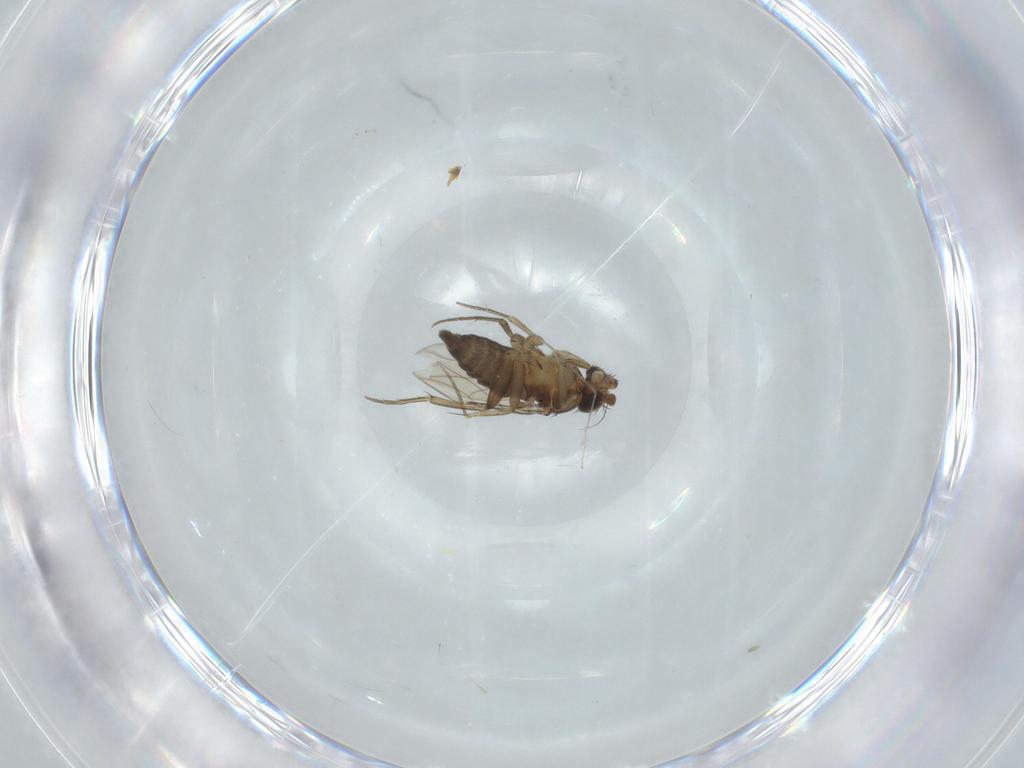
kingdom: Animalia
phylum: Arthropoda
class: Insecta
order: Diptera
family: Phoridae
